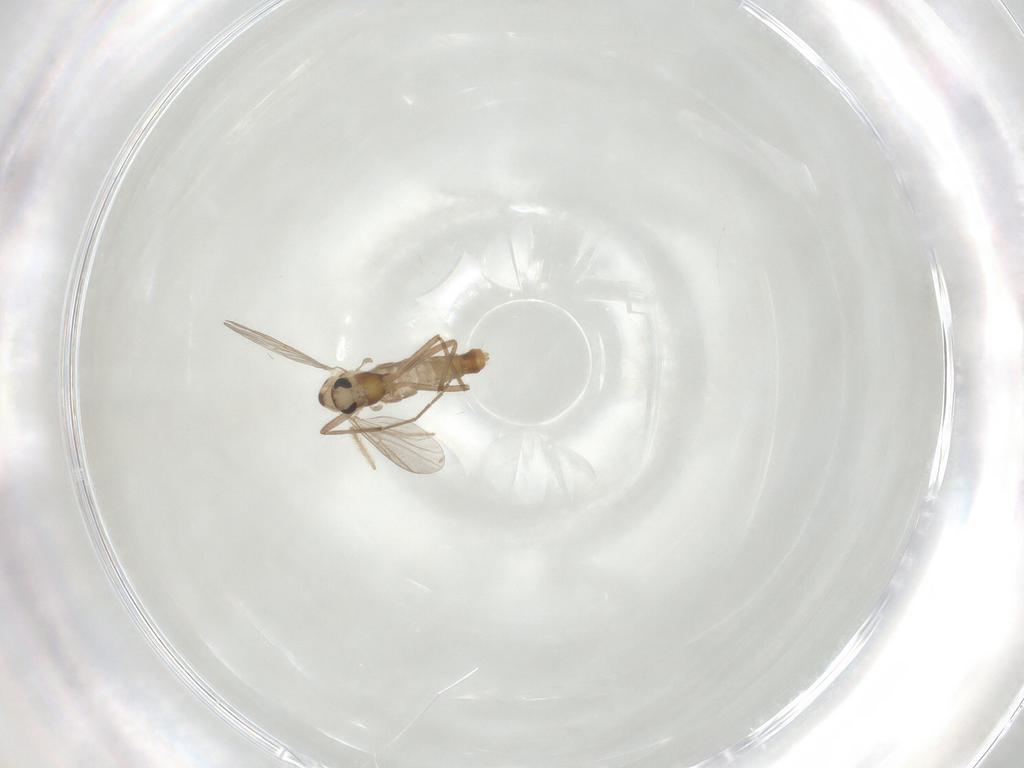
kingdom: Animalia
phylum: Arthropoda
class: Insecta
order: Diptera
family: Chironomidae
